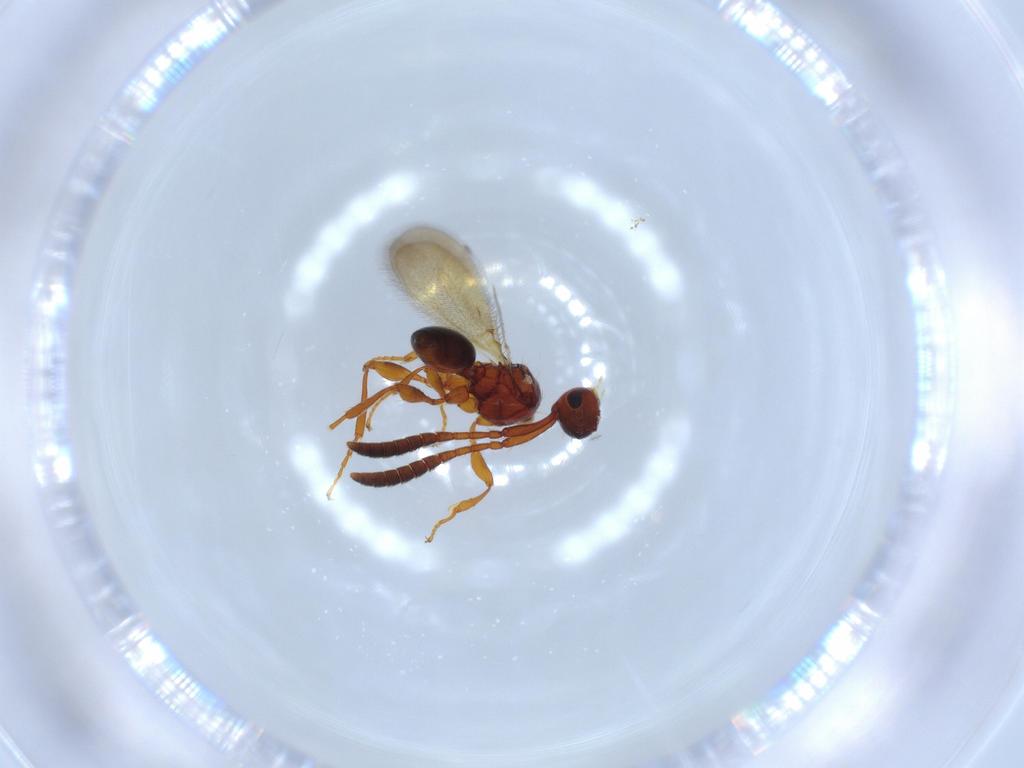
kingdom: Animalia
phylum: Arthropoda
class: Insecta
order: Hymenoptera
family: Diapriidae
